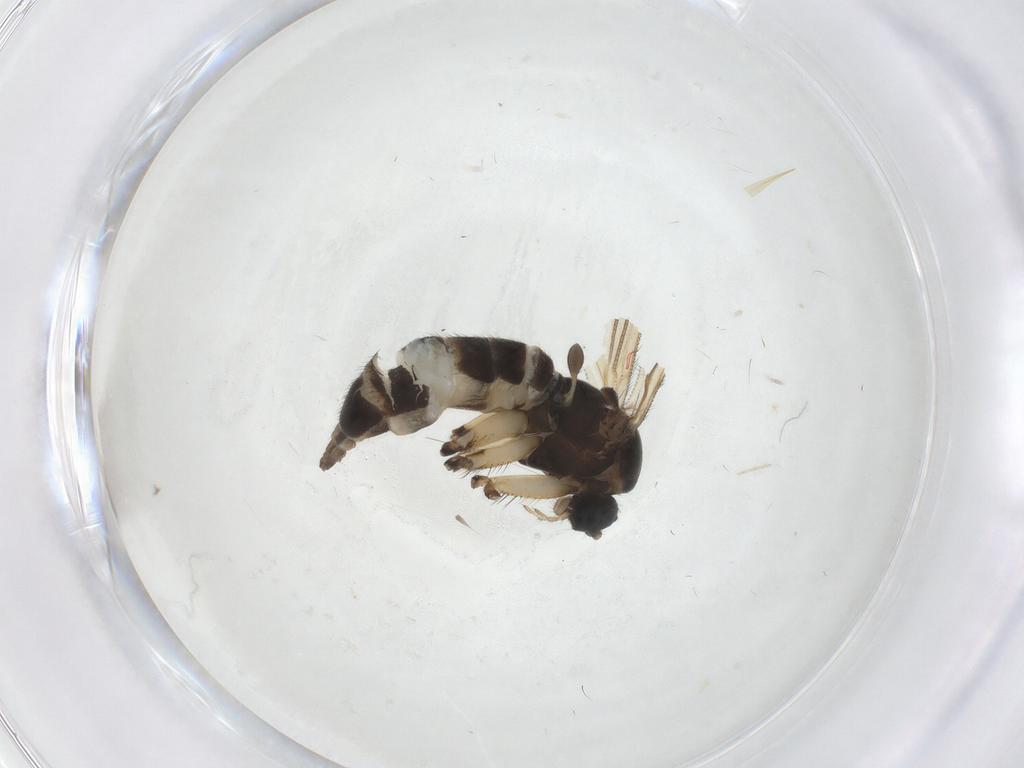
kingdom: Animalia
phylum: Arthropoda
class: Insecta
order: Diptera
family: Sciaridae
